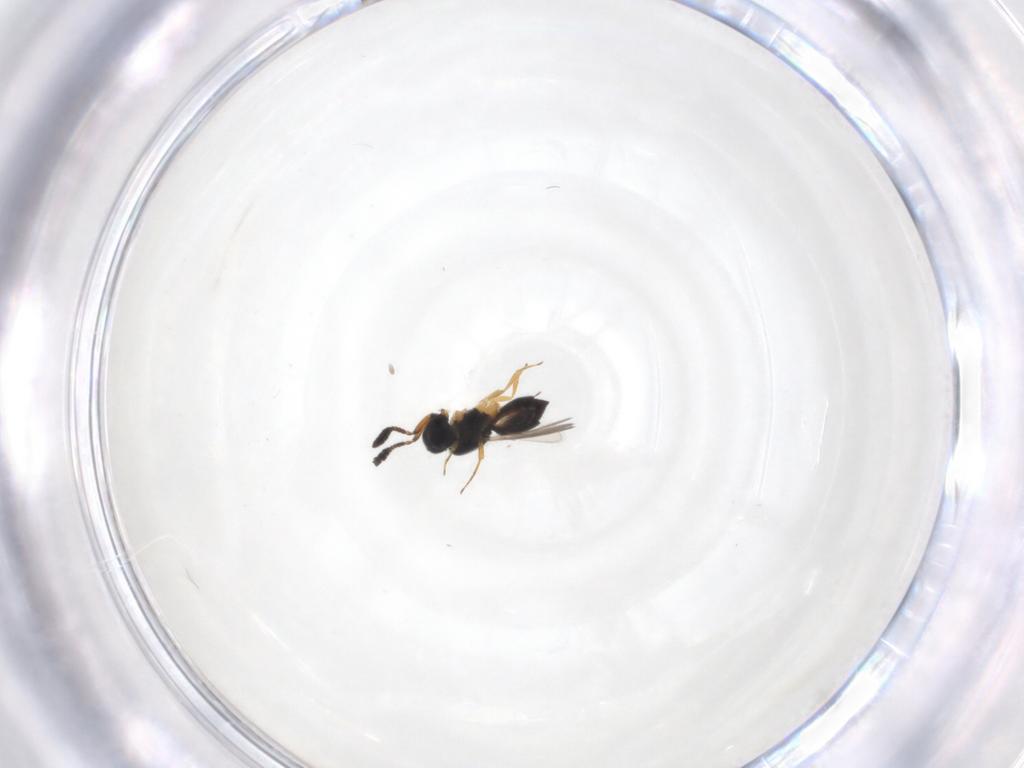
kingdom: Animalia
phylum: Arthropoda
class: Insecta
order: Hymenoptera
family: Scelionidae
